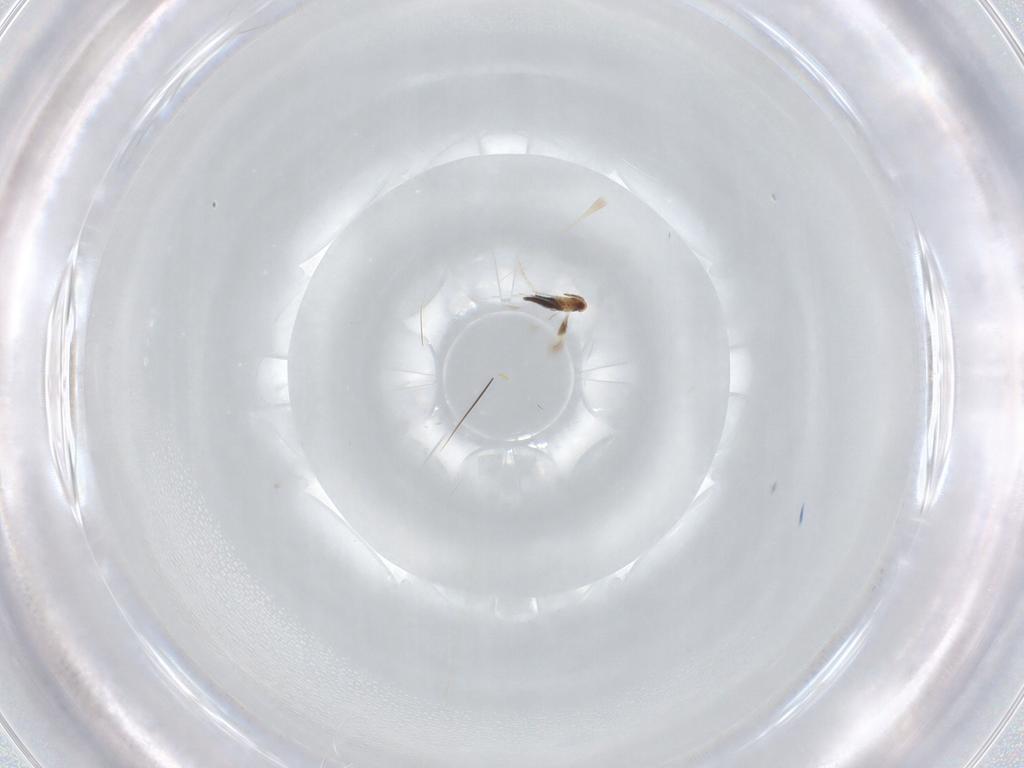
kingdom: Animalia
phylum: Arthropoda
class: Insecta
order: Hymenoptera
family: Signiphoridae
